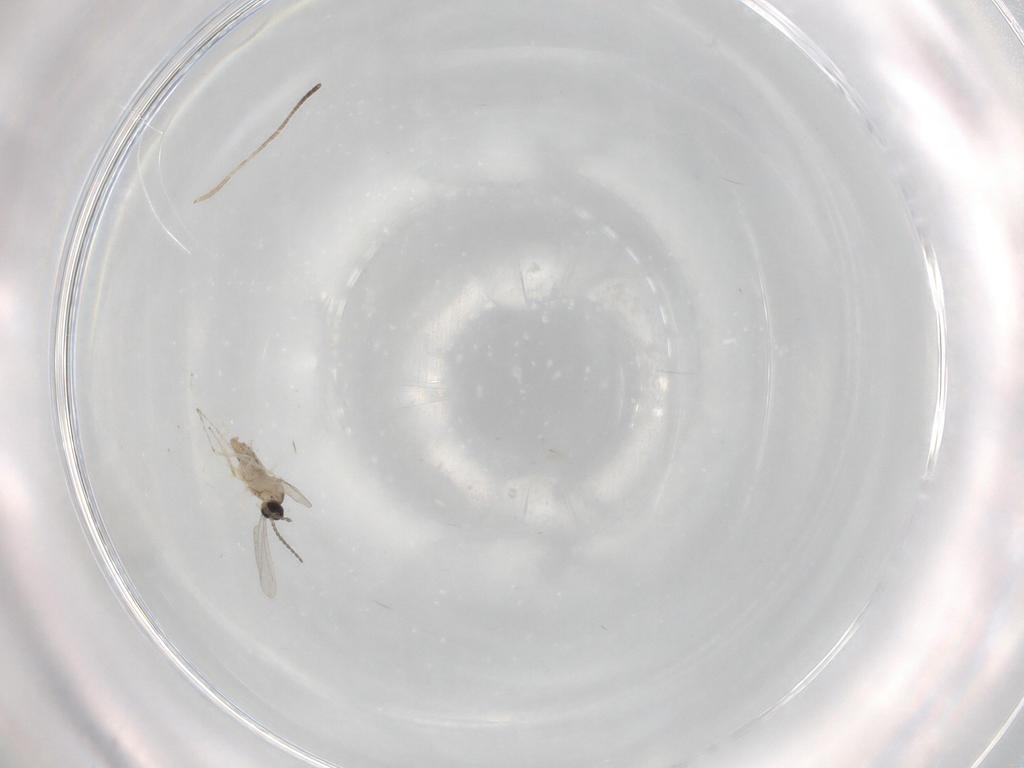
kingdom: Animalia
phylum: Arthropoda
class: Insecta
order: Diptera
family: Cecidomyiidae
